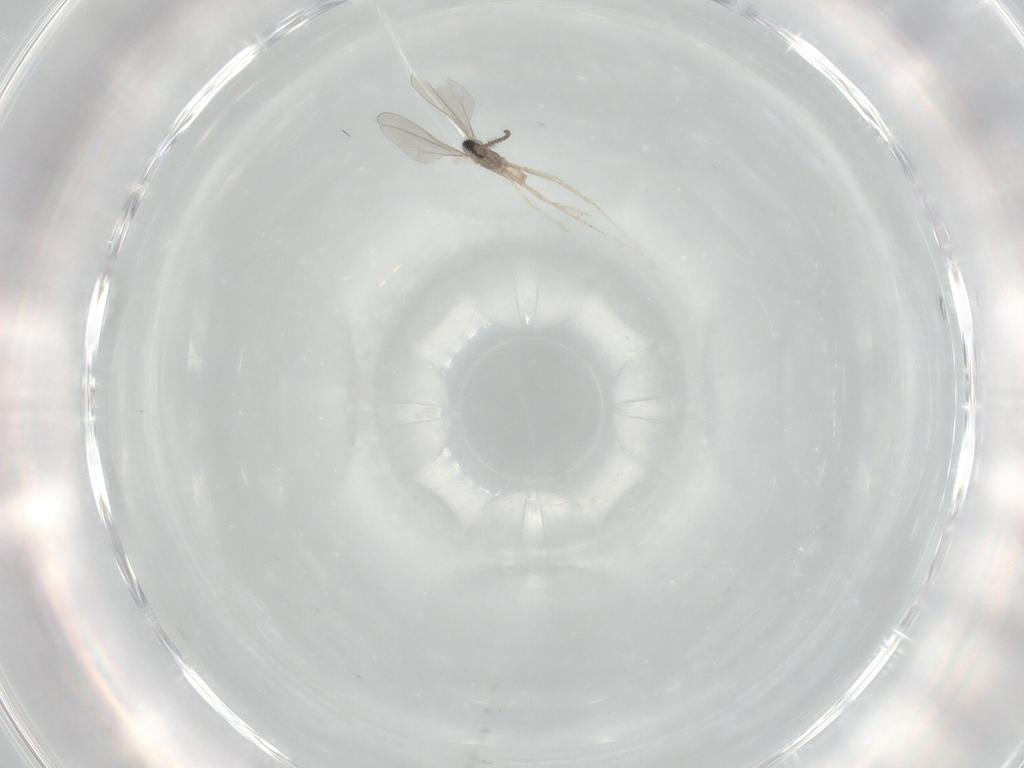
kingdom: Animalia
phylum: Arthropoda
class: Insecta
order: Diptera
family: Cecidomyiidae
